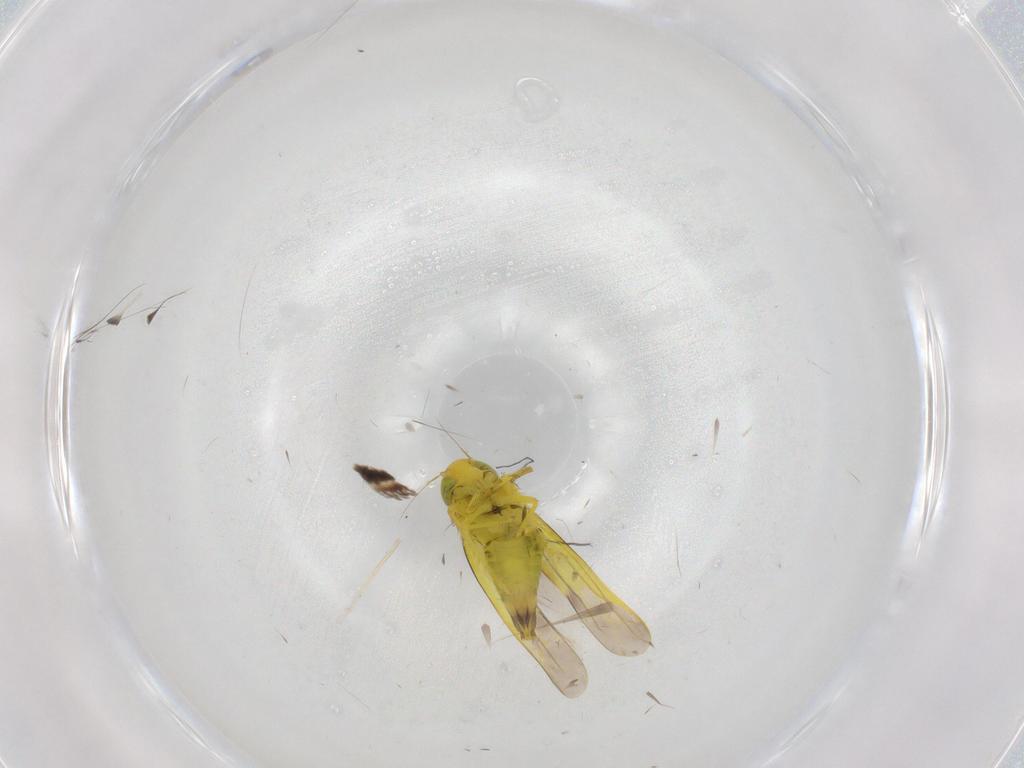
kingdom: Animalia
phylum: Arthropoda
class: Insecta
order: Hemiptera
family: Cicadellidae
